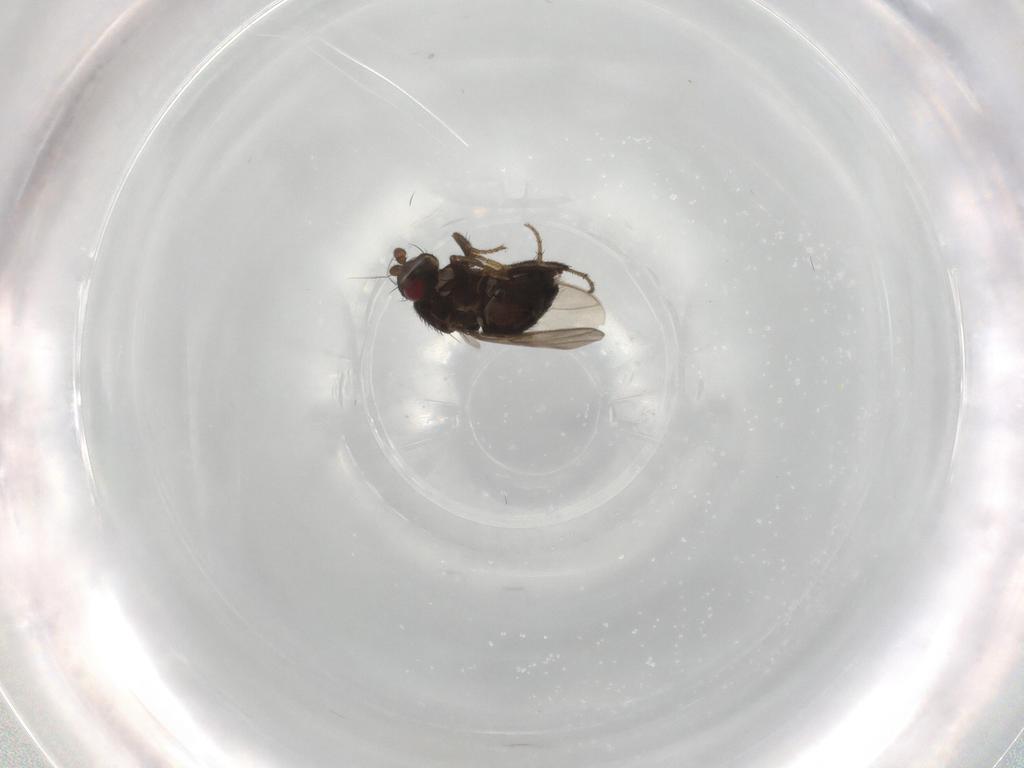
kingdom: Animalia
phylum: Arthropoda
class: Insecta
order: Diptera
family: Sphaeroceridae
